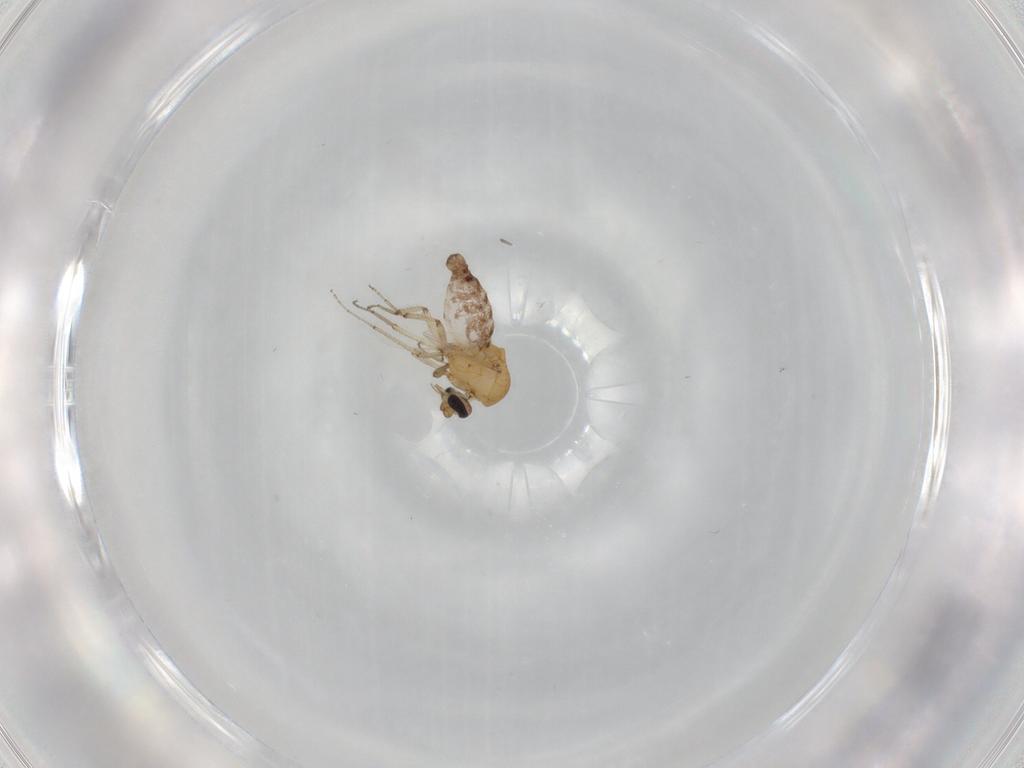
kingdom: Animalia
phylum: Arthropoda
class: Insecta
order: Diptera
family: Ceratopogonidae
